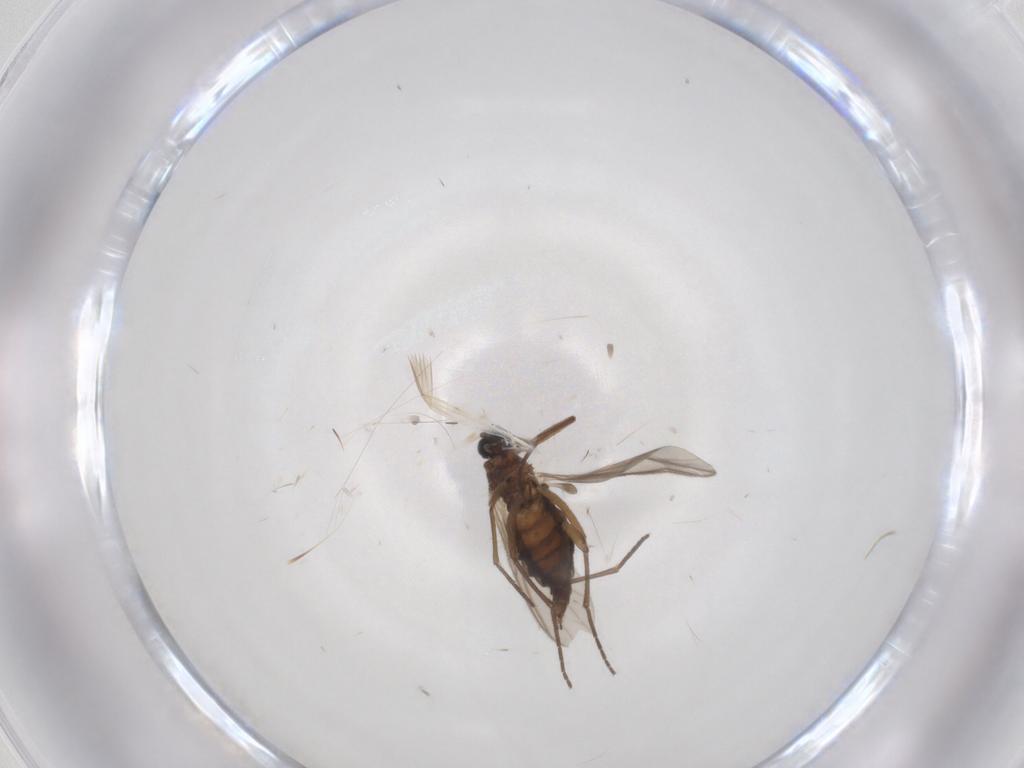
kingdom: Animalia
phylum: Arthropoda
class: Insecta
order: Diptera
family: Sciaridae
